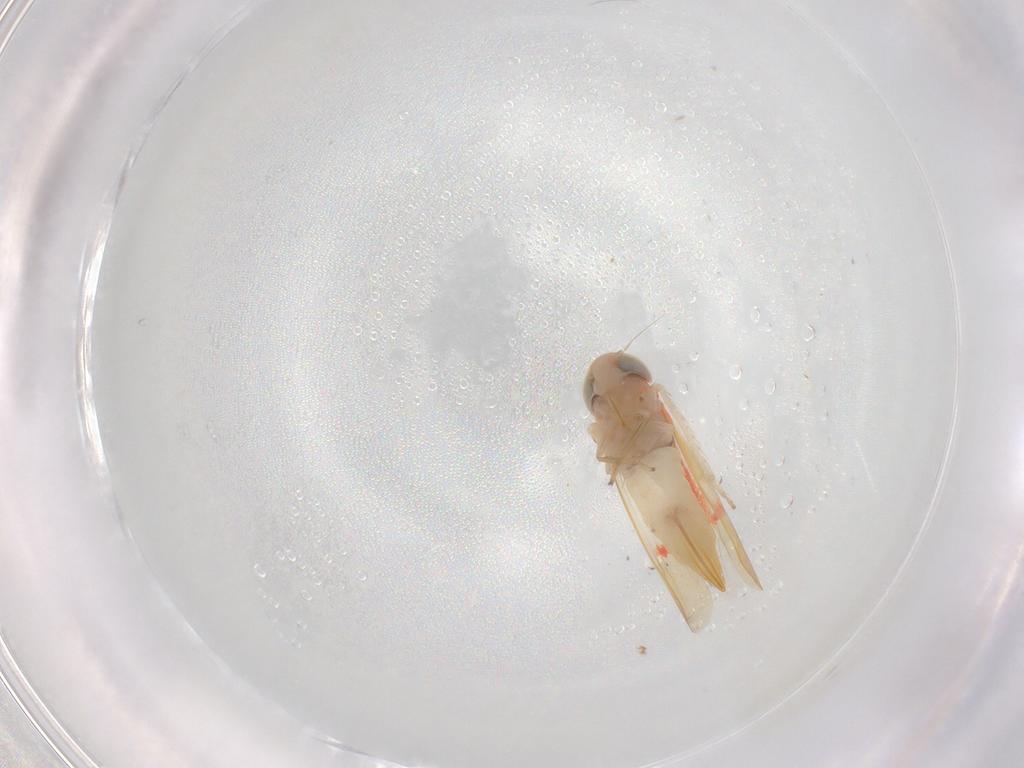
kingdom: Animalia
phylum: Arthropoda
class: Insecta
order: Hemiptera
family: Cicadellidae
